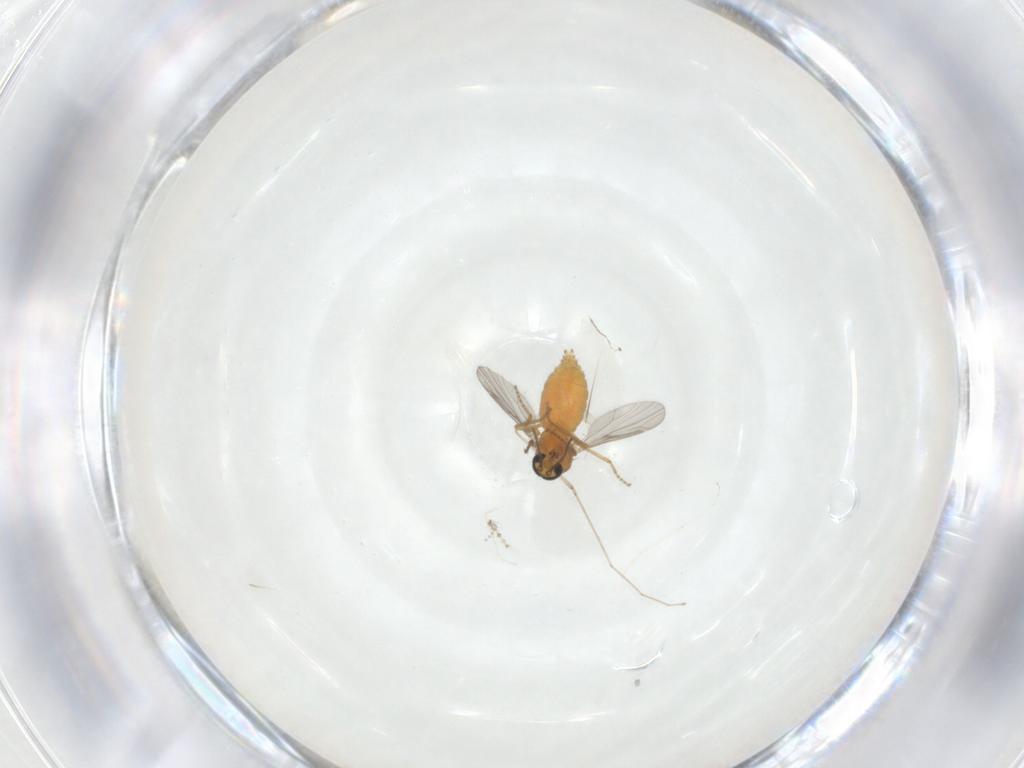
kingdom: Animalia
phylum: Arthropoda
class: Insecta
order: Diptera
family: Ceratopogonidae
